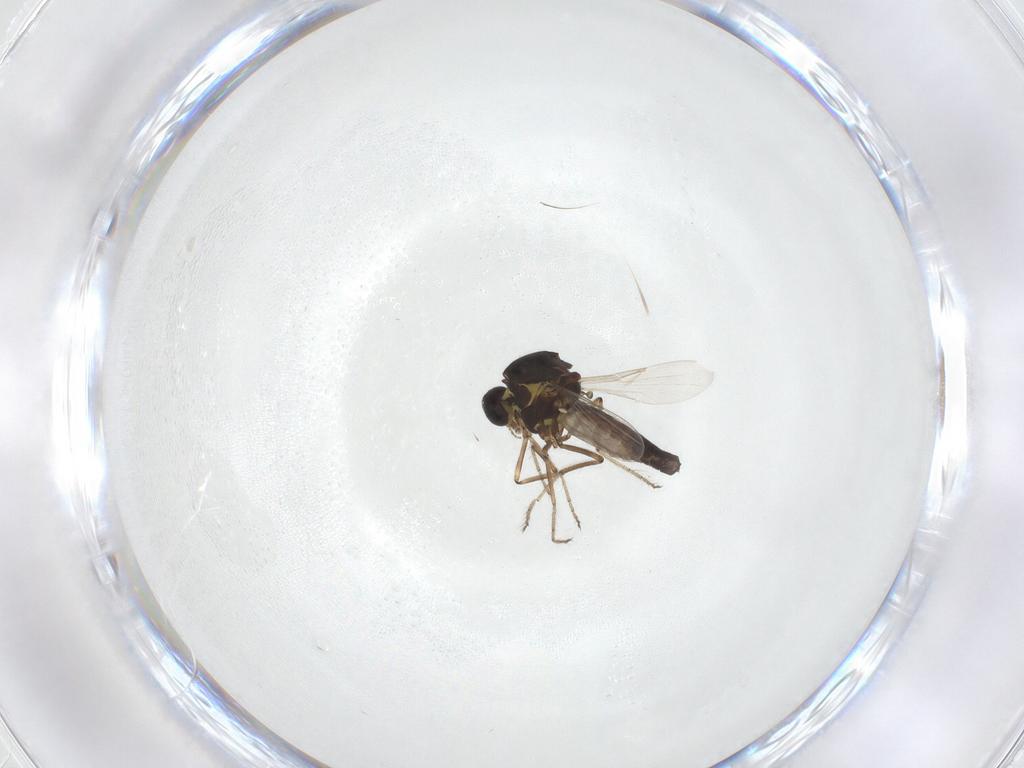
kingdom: Animalia
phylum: Arthropoda
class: Insecta
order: Diptera
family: Ceratopogonidae
